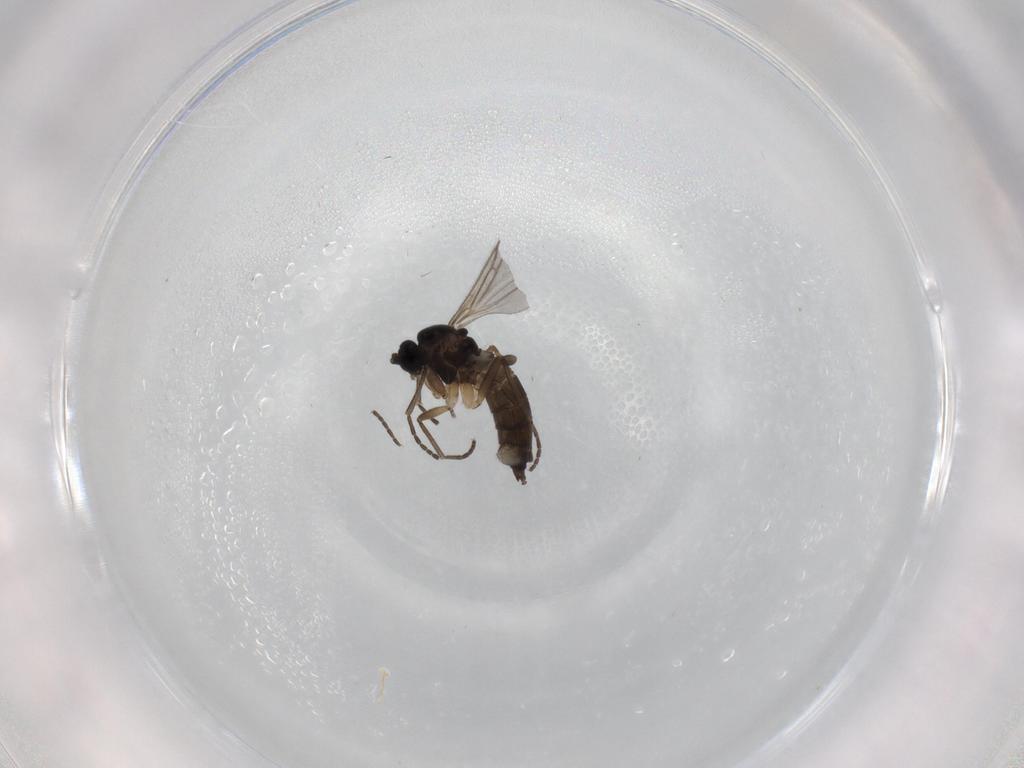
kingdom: Animalia
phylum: Arthropoda
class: Insecta
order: Diptera
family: Sciaridae
